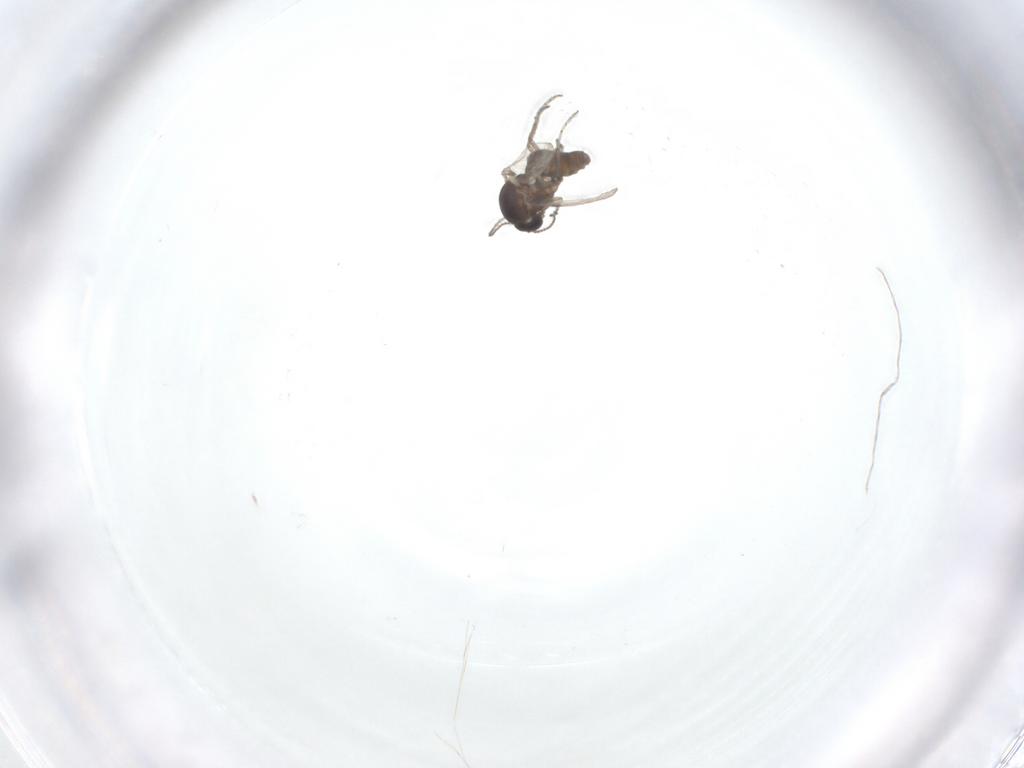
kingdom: Animalia
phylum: Arthropoda
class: Insecta
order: Diptera
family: Ceratopogonidae
